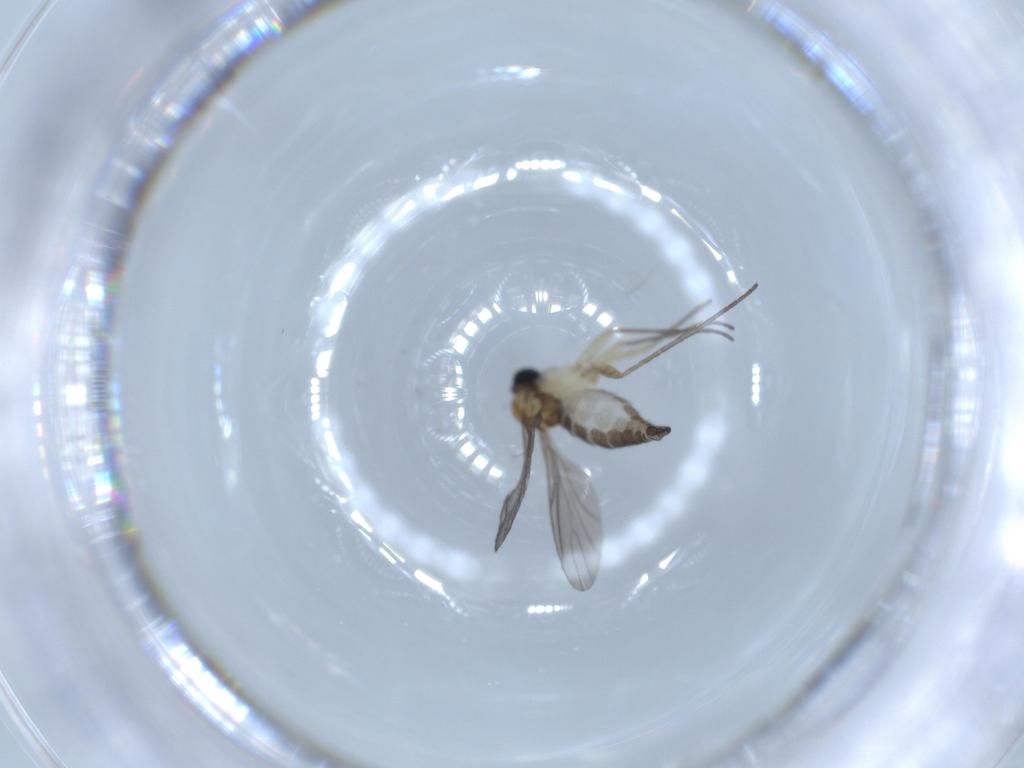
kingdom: Animalia
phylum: Arthropoda
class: Insecta
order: Diptera
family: Sciaridae
